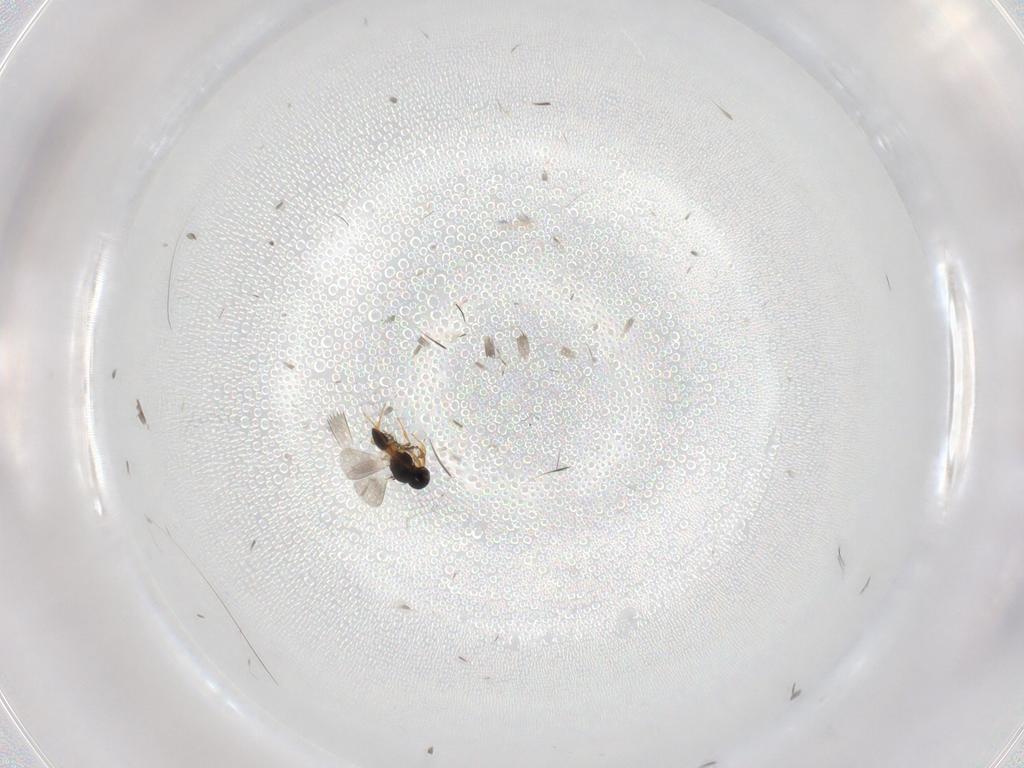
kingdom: Animalia
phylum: Arthropoda
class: Insecta
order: Hymenoptera
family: Platygastridae
